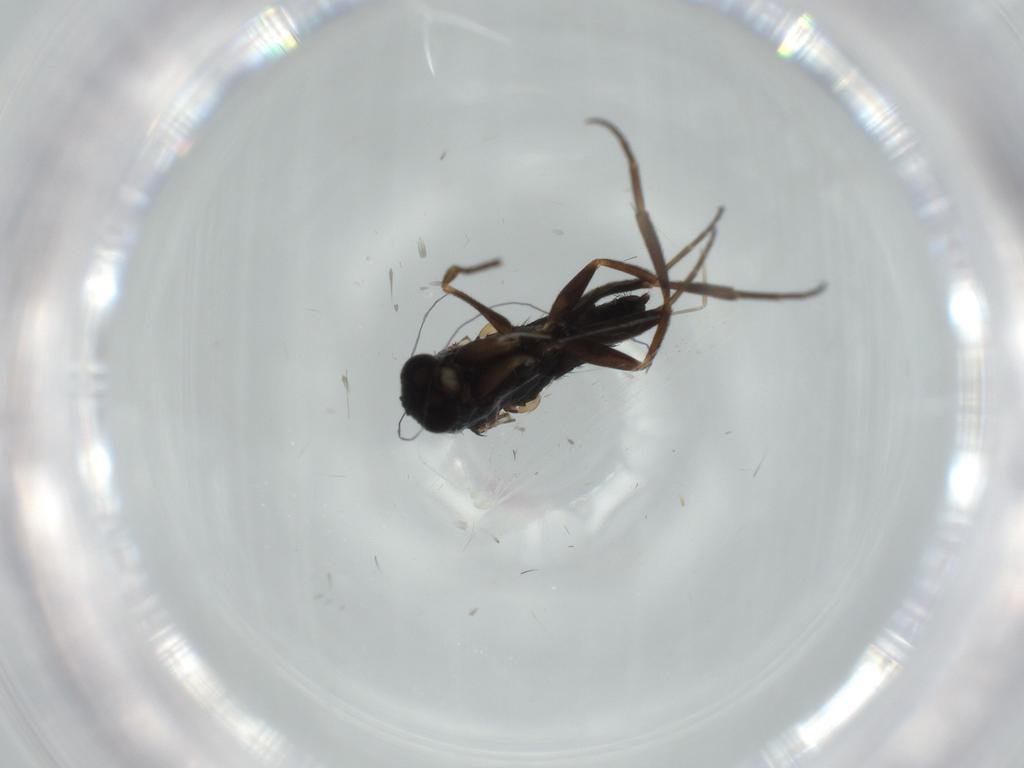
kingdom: Animalia
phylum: Arthropoda
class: Insecta
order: Diptera
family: Phoridae
